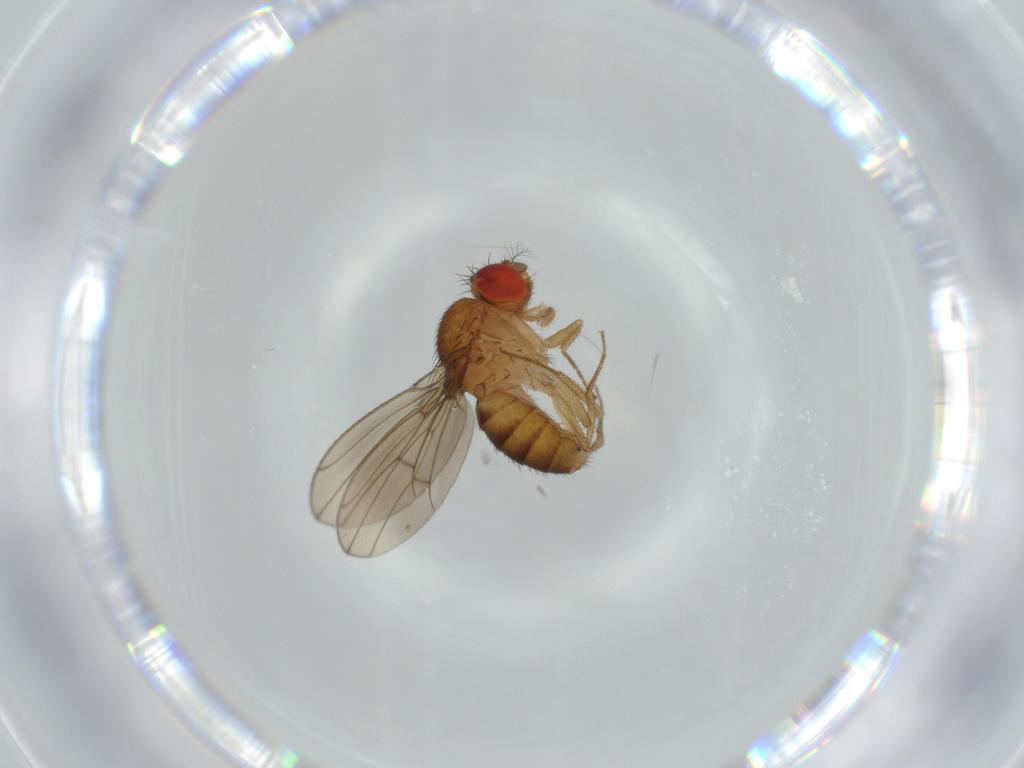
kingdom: Animalia
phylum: Arthropoda
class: Insecta
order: Diptera
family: Drosophilidae
